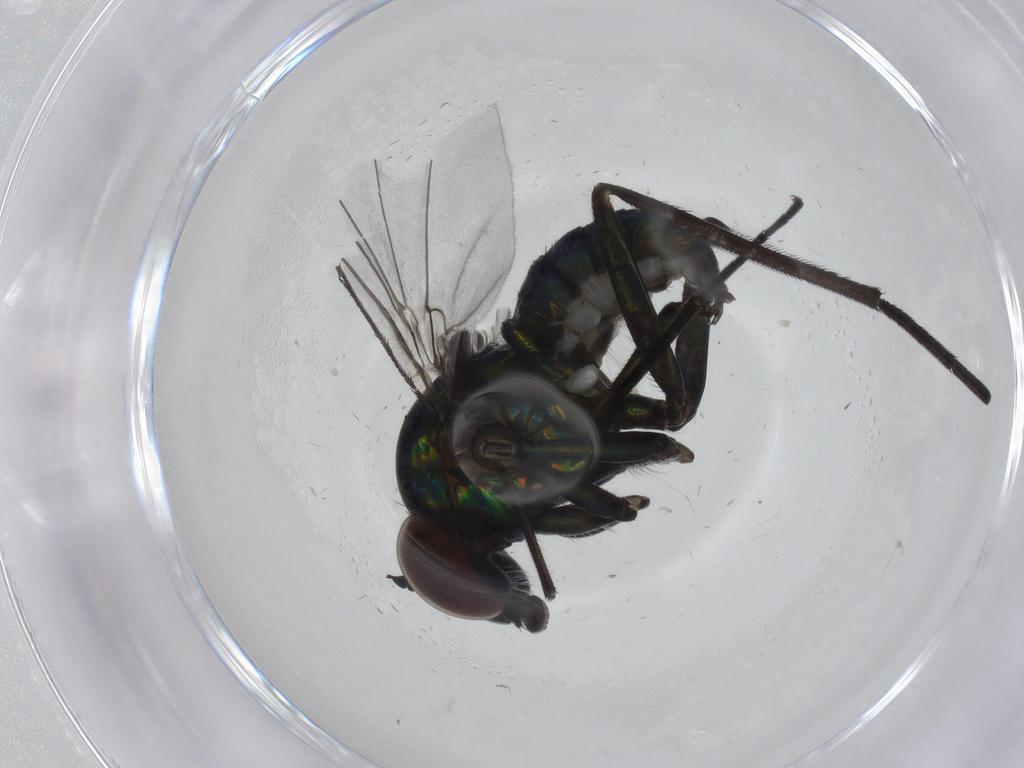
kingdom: Animalia
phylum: Arthropoda
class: Insecta
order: Diptera
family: Dolichopodidae
